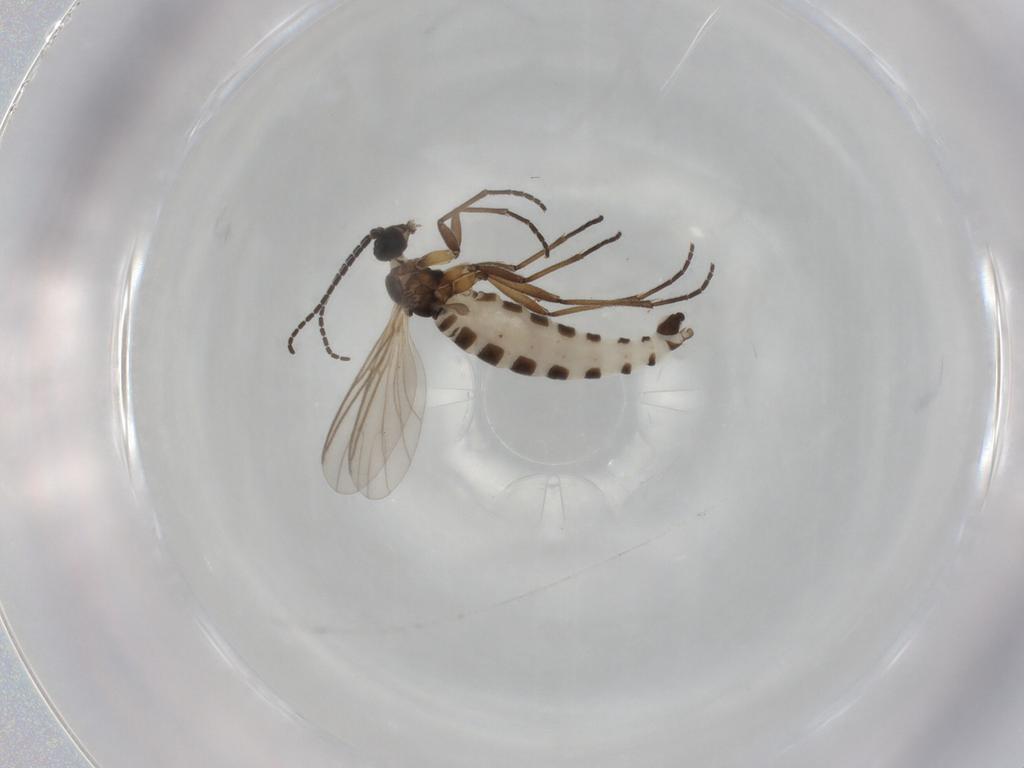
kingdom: Animalia
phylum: Arthropoda
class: Insecta
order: Diptera
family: Sciaridae
